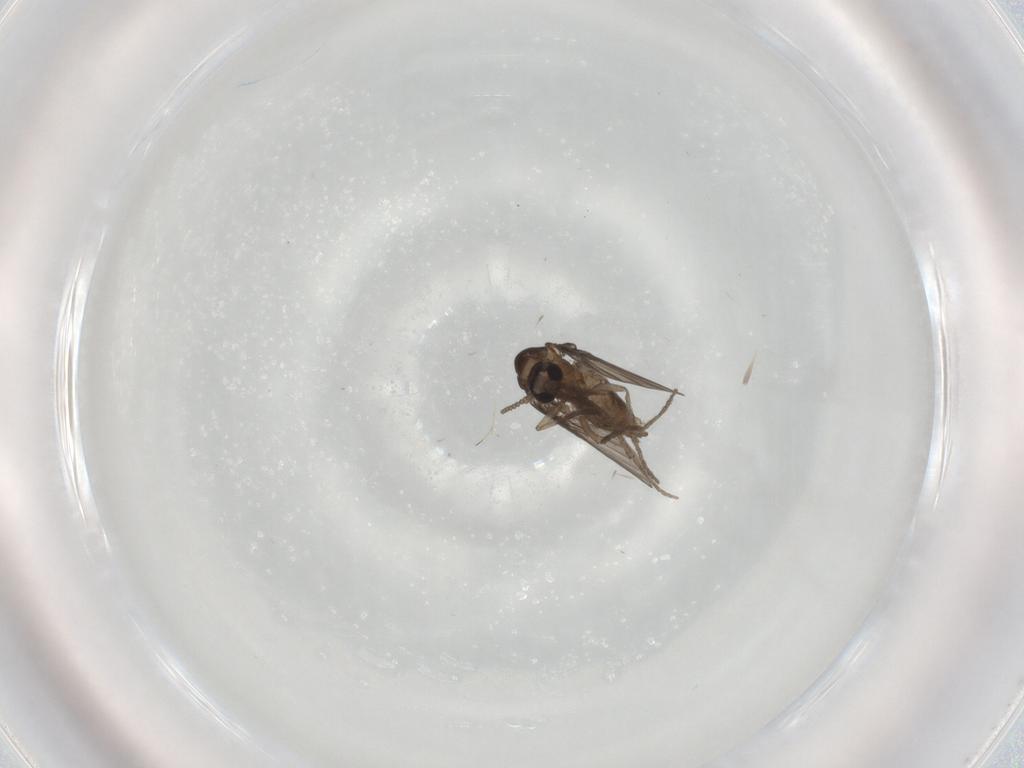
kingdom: Animalia
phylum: Arthropoda
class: Insecta
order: Diptera
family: Psychodidae
